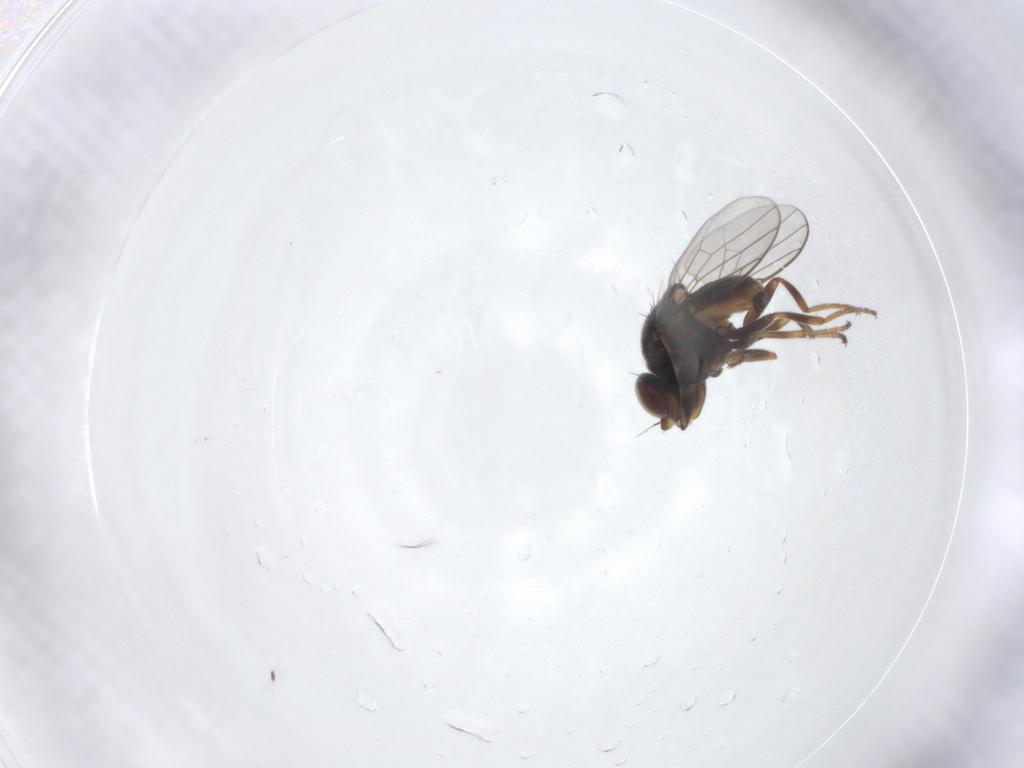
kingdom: Animalia
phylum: Arthropoda
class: Insecta
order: Diptera
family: Chloropidae
